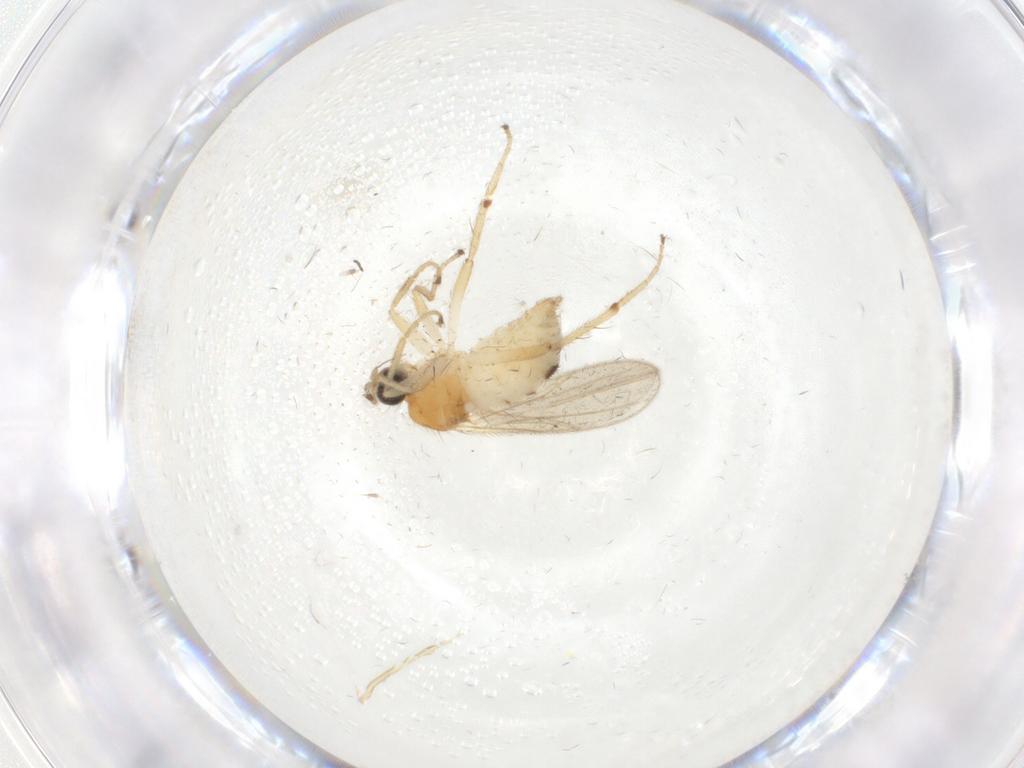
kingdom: Animalia
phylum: Arthropoda
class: Insecta
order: Diptera
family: Hybotidae
